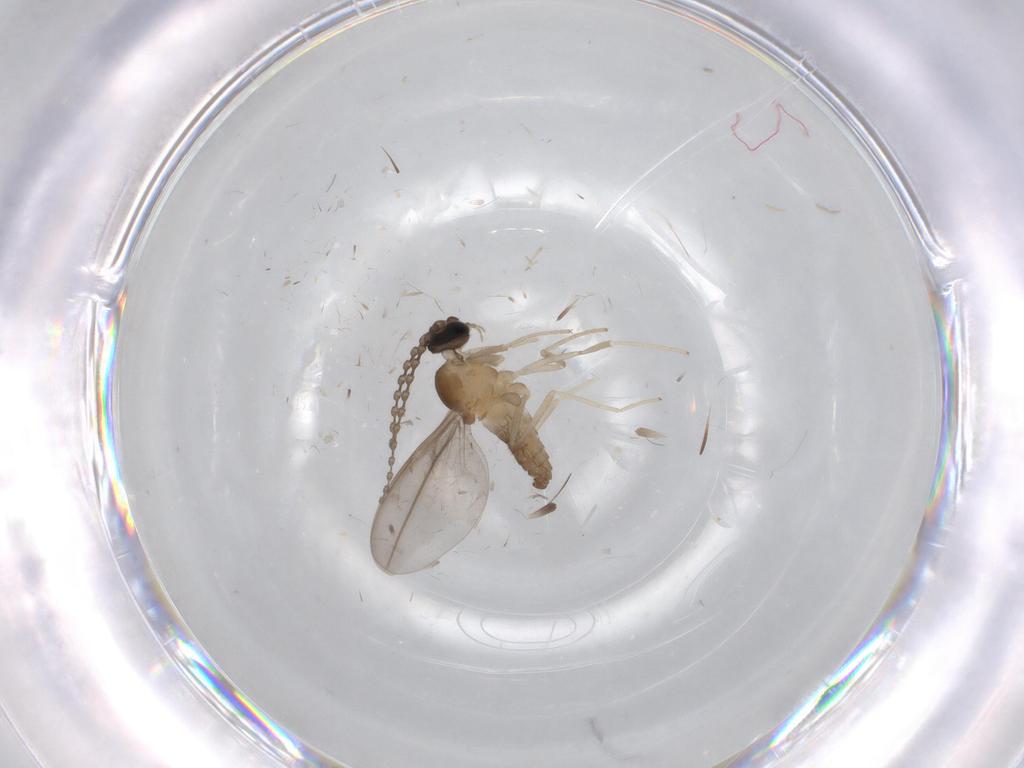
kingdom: Animalia
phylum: Arthropoda
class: Insecta
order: Diptera
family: Cecidomyiidae
